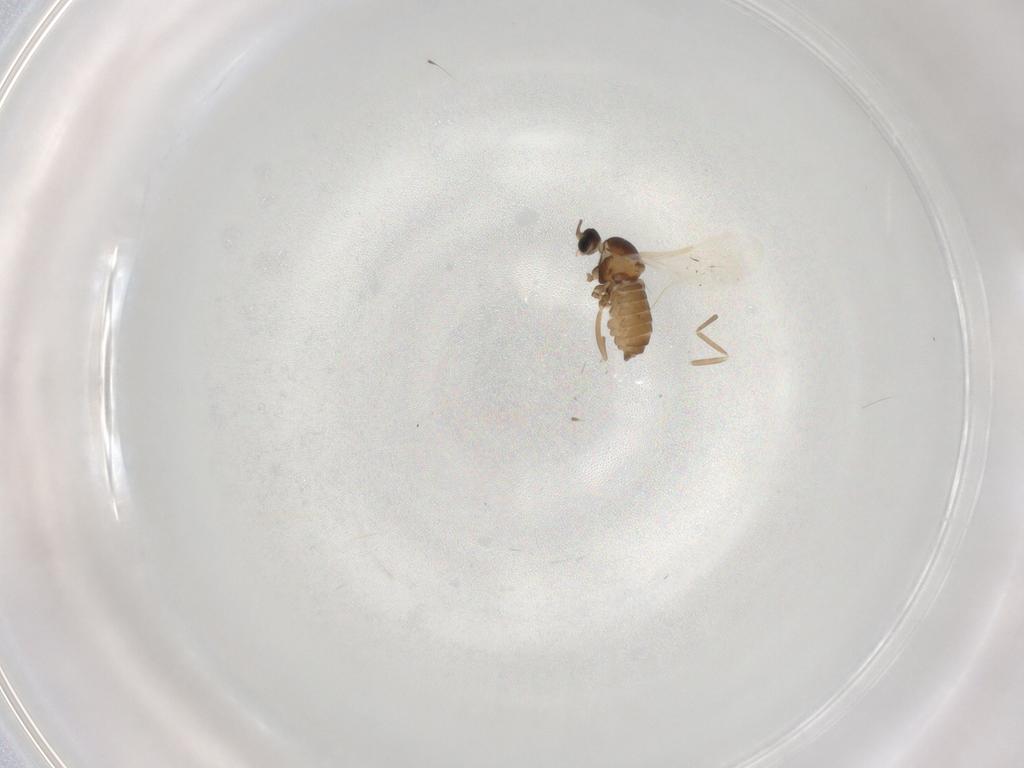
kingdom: Animalia
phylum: Arthropoda
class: Insecta
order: Diptera
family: Cecidomyiidae
